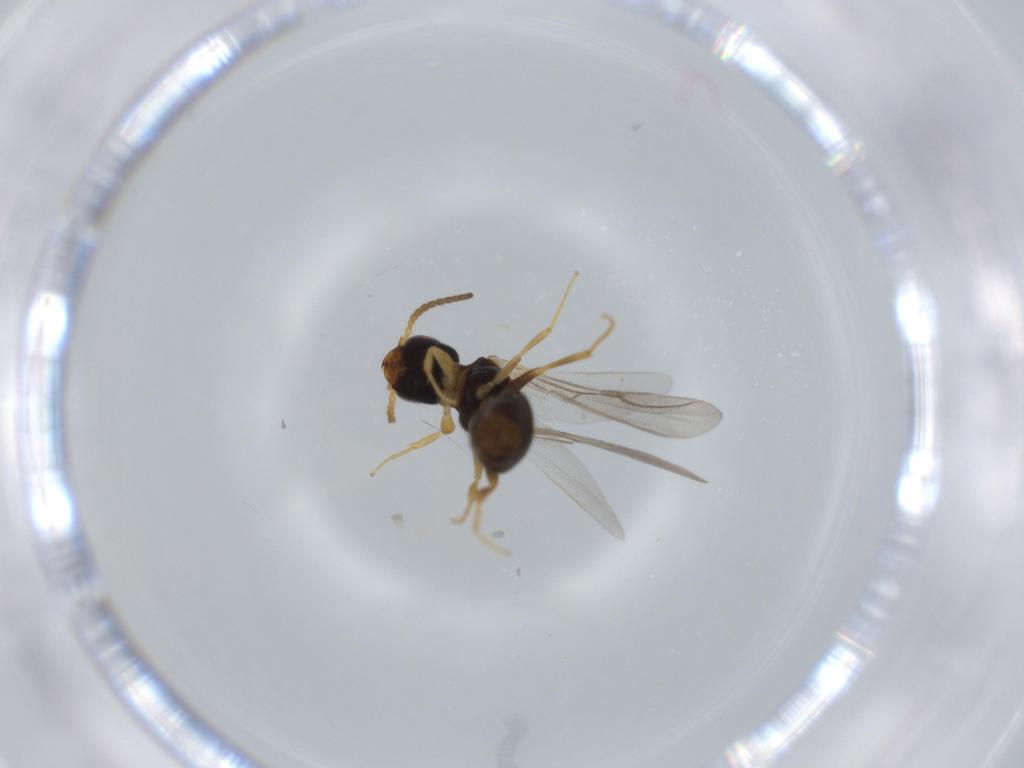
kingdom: Animalia
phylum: Arthropoda
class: Insecta
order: Hymenoptera
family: Bethylidae
